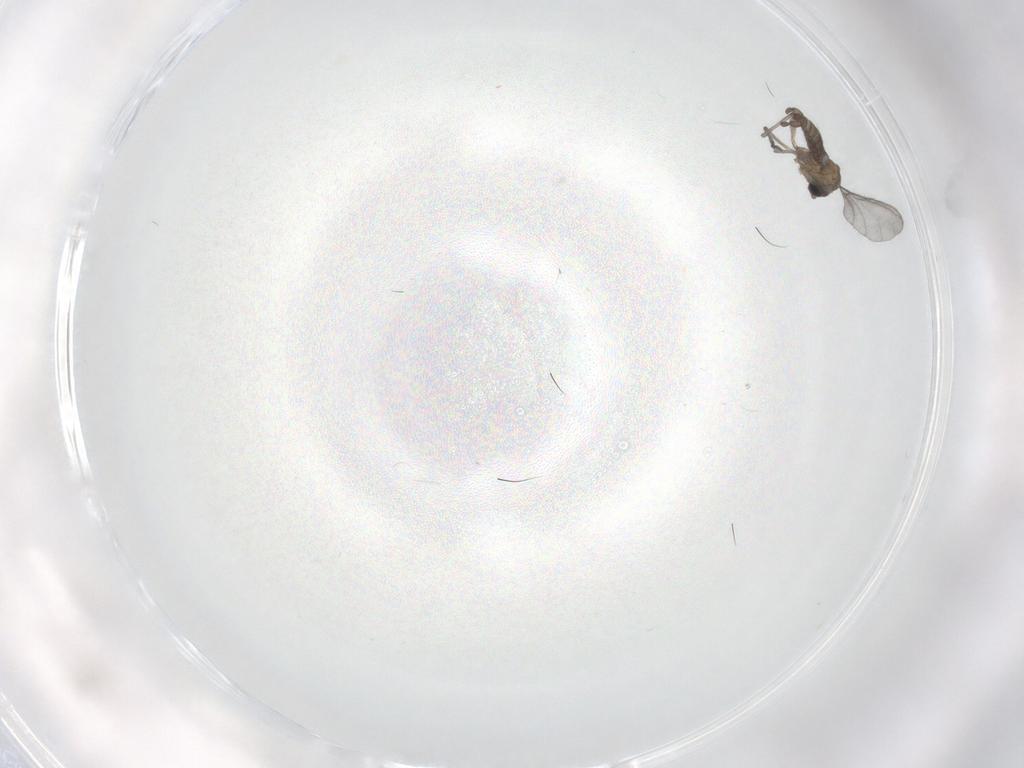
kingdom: Animalia
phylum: Arthropoda
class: Insecta
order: Diptera
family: Sciaridae
